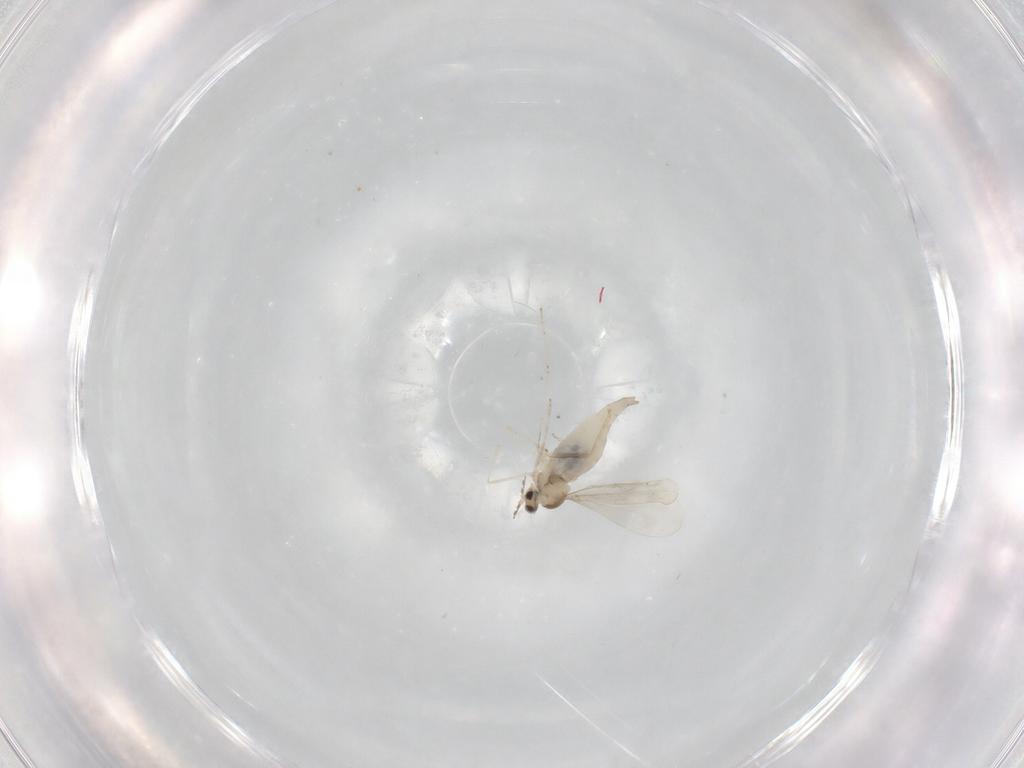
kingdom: Animalia
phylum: Arthropoda
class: Insecta
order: Diptera
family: Cecidomyiidae
